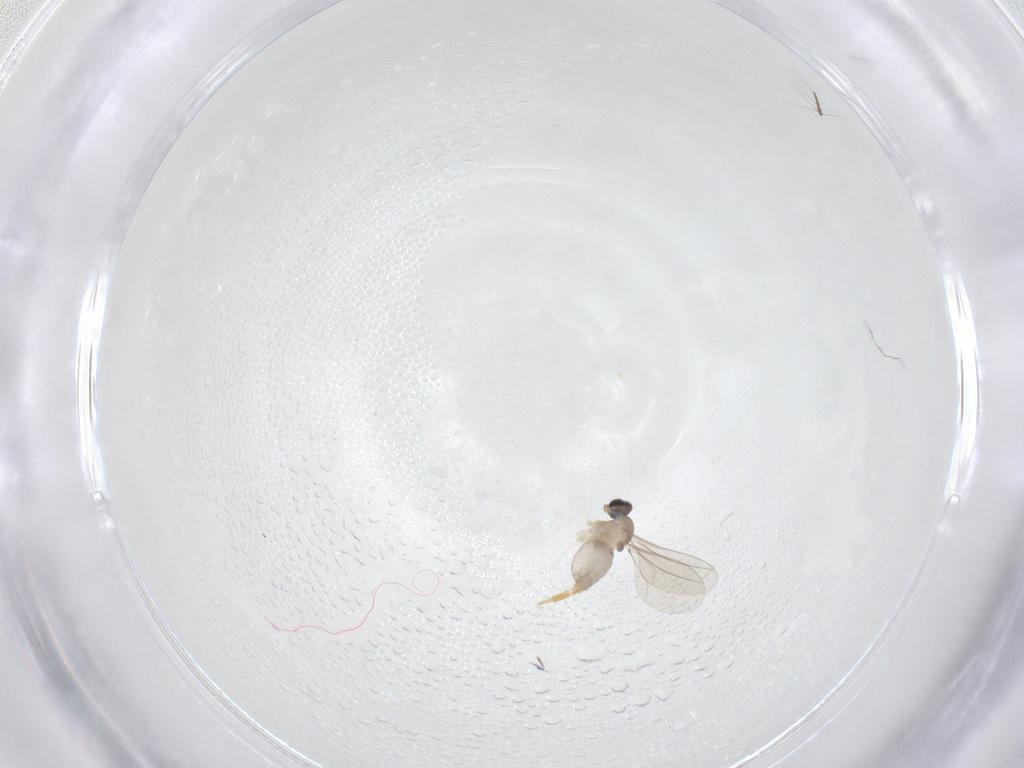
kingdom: Animalia
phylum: Arthropoda
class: Insecta
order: Diptera
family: Cecidomyiidae
